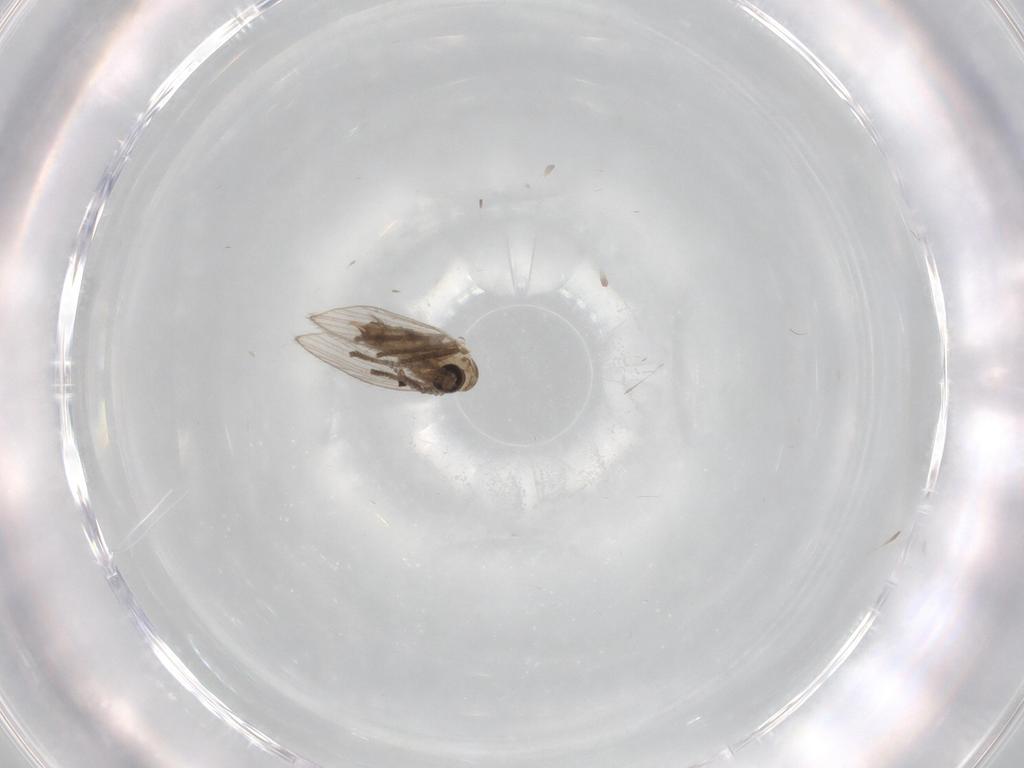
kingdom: Animalia
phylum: Arthropoda
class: Insecta
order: Diptera
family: Psychodidae
